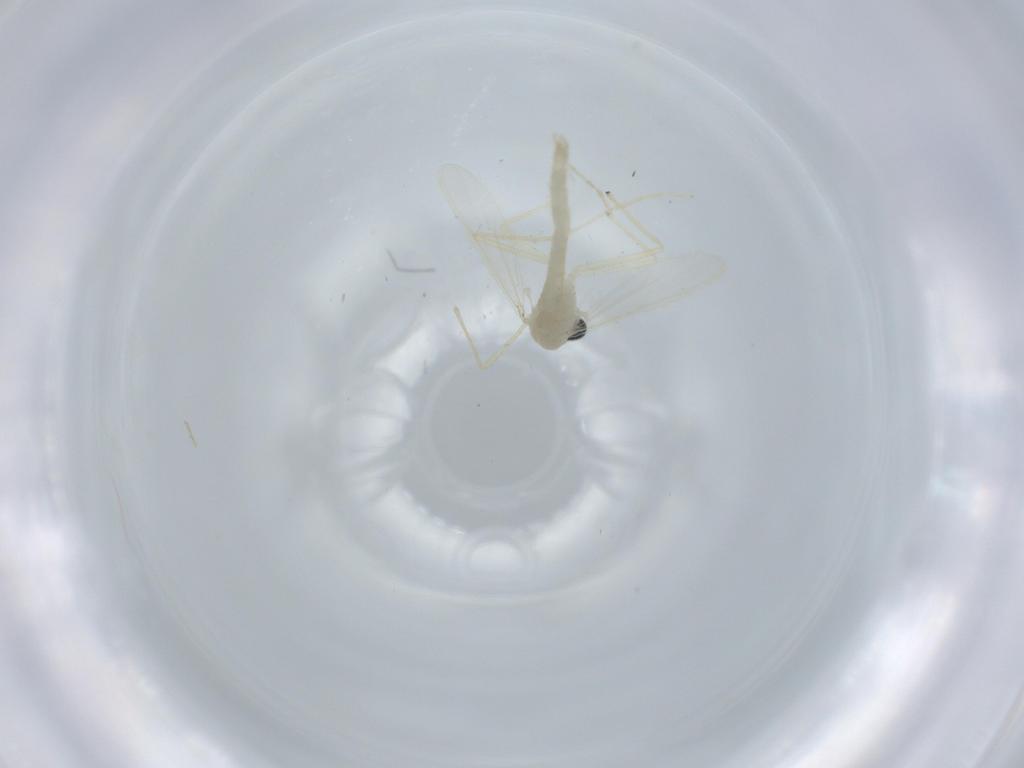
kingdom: Animalia
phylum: Arthropoda
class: Insecta
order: Diptera
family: Chironomidae
